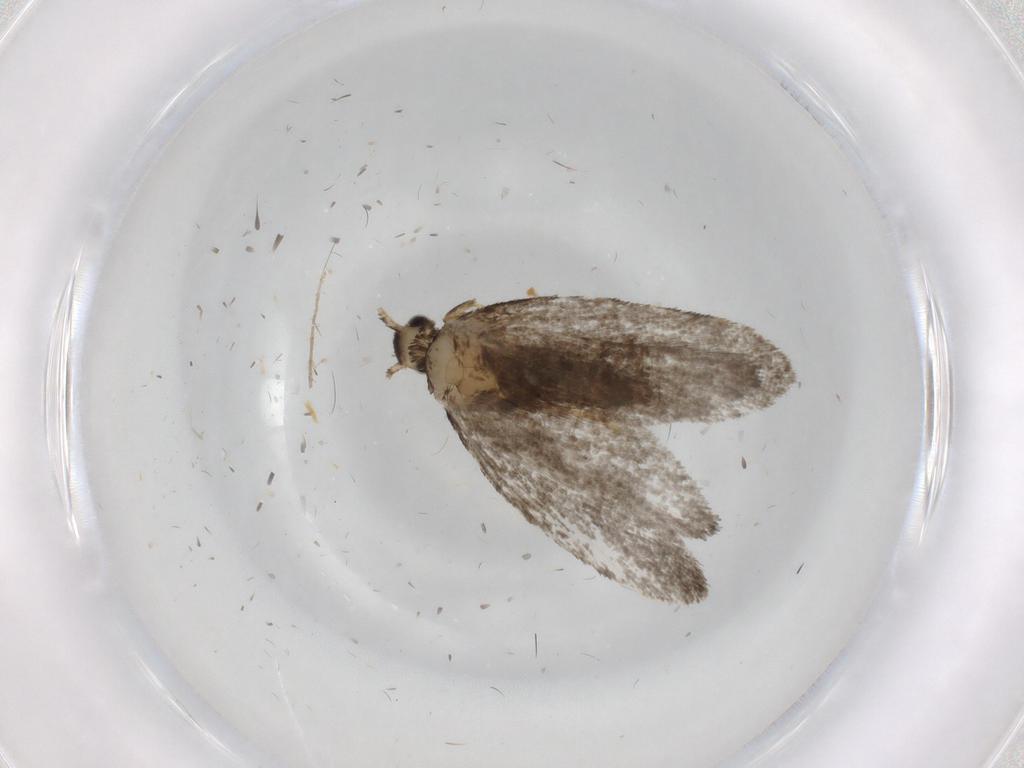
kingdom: Animalia
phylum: Arthropoda
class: Insecta
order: Lepidoptera
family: Psychidae
